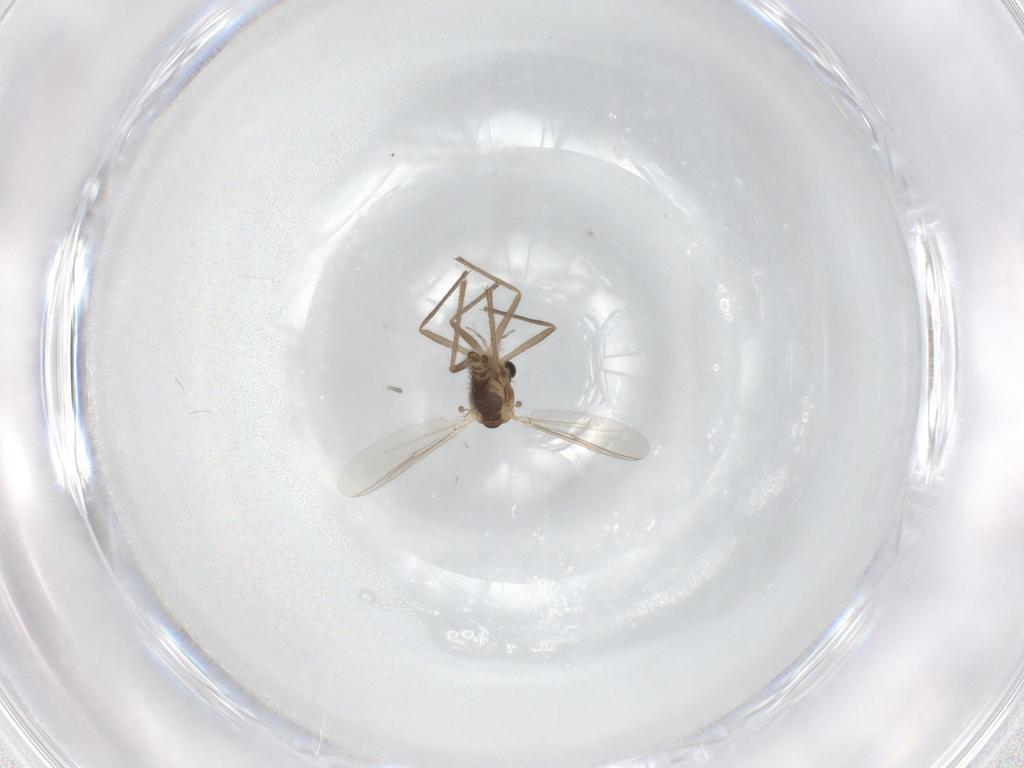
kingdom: Animalia
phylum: Arthropoda
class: Insecta
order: Diptera
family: Chironomidae
